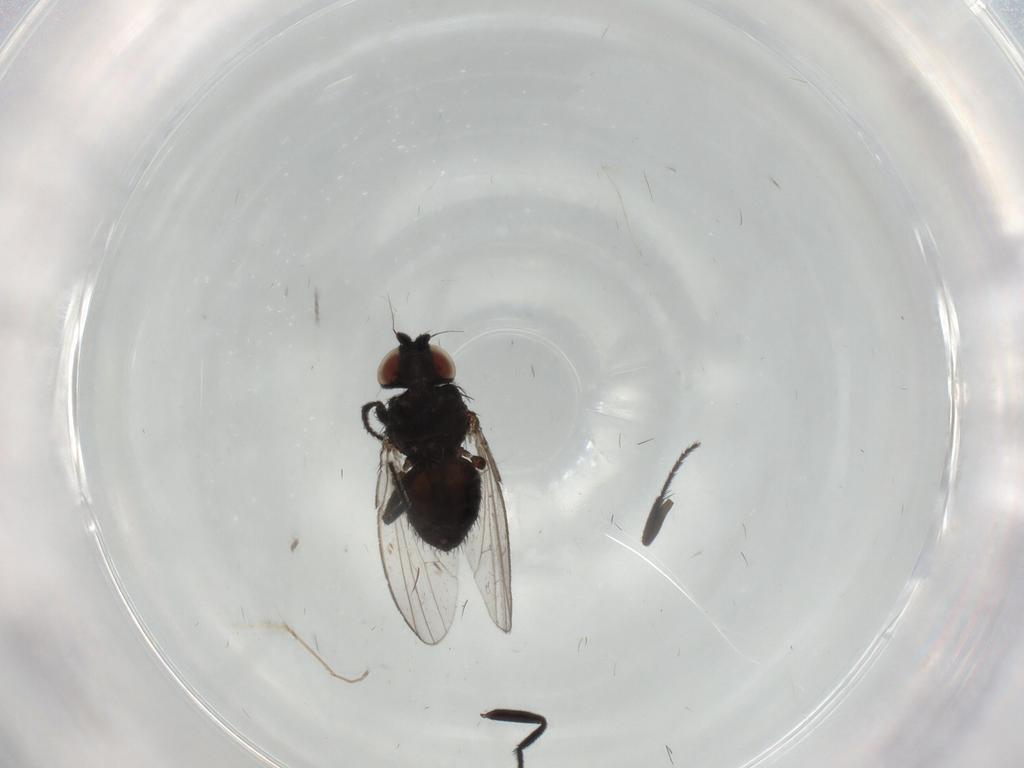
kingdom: Animalia
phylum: Arthropoda
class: Insecta
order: Diptera
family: Milichiidae
